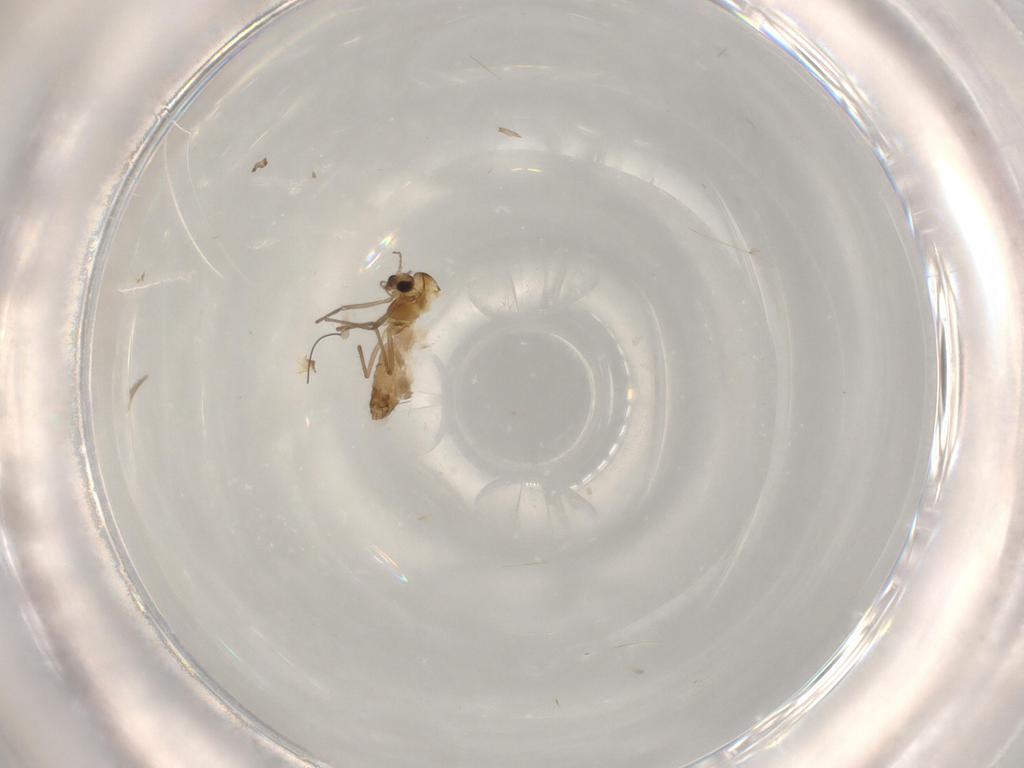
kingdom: Animalia
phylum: Arthropoda
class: Insecta
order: Diptera
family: Chironomidae
